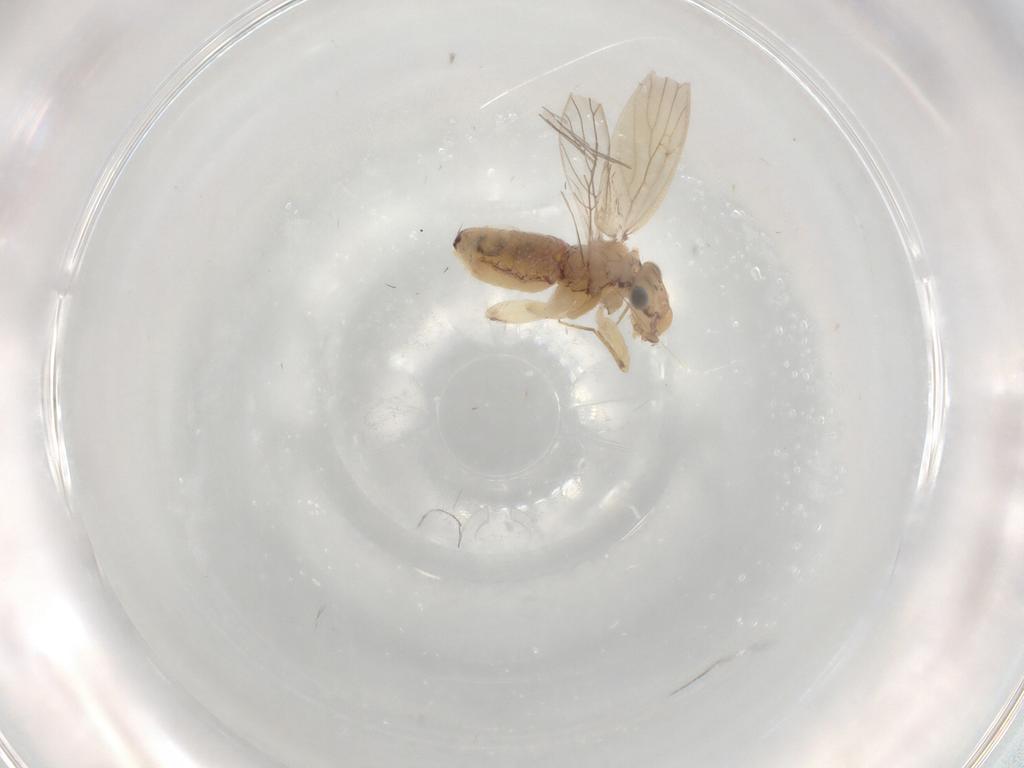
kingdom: Animalia
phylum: Arthropoda
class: Insecta
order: Psocodea
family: Lepidopsocidae
